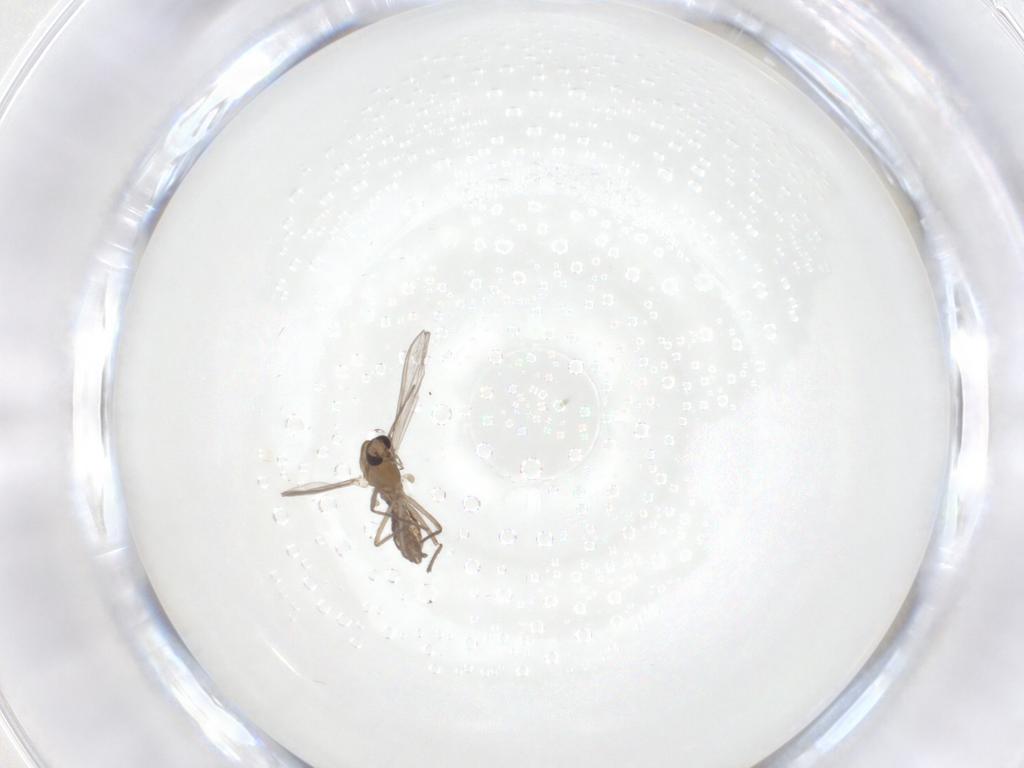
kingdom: Animalia
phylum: Arthropoda
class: Insecta
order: Diptera
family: Chironomidae
